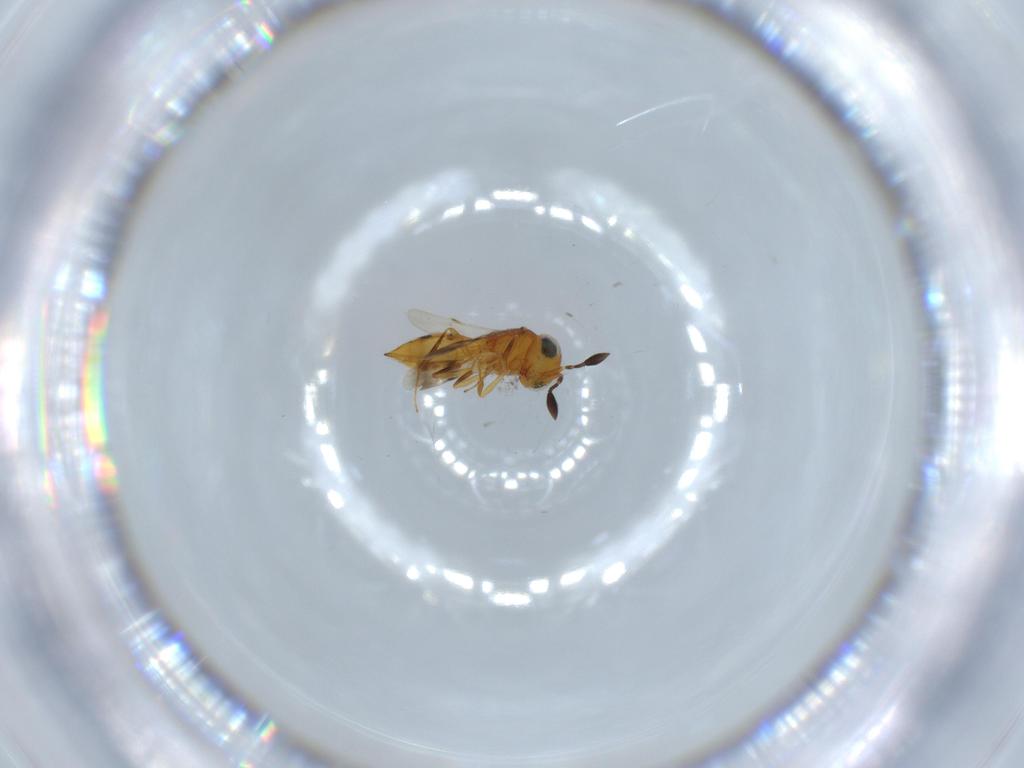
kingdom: Animalia
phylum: Arthropoda
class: Insecta
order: Hymenoptera
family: Scelionidae
